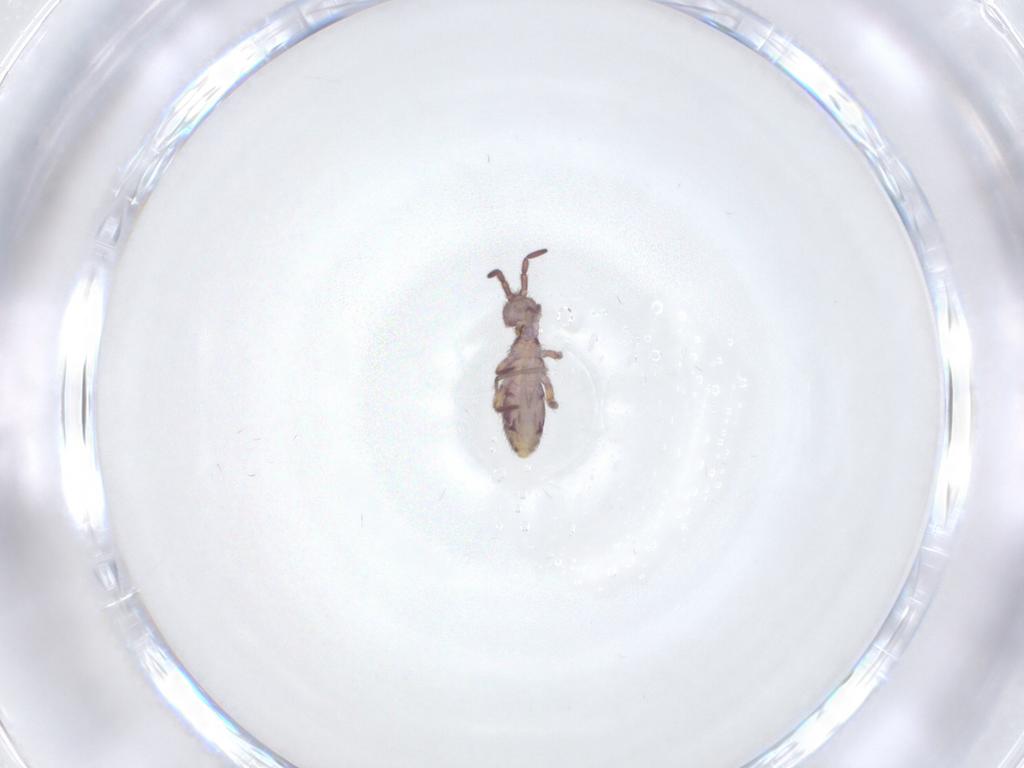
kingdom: Animalia
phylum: Arthropoda
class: Collembola
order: Entomobryomorpha
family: Isotomidae
